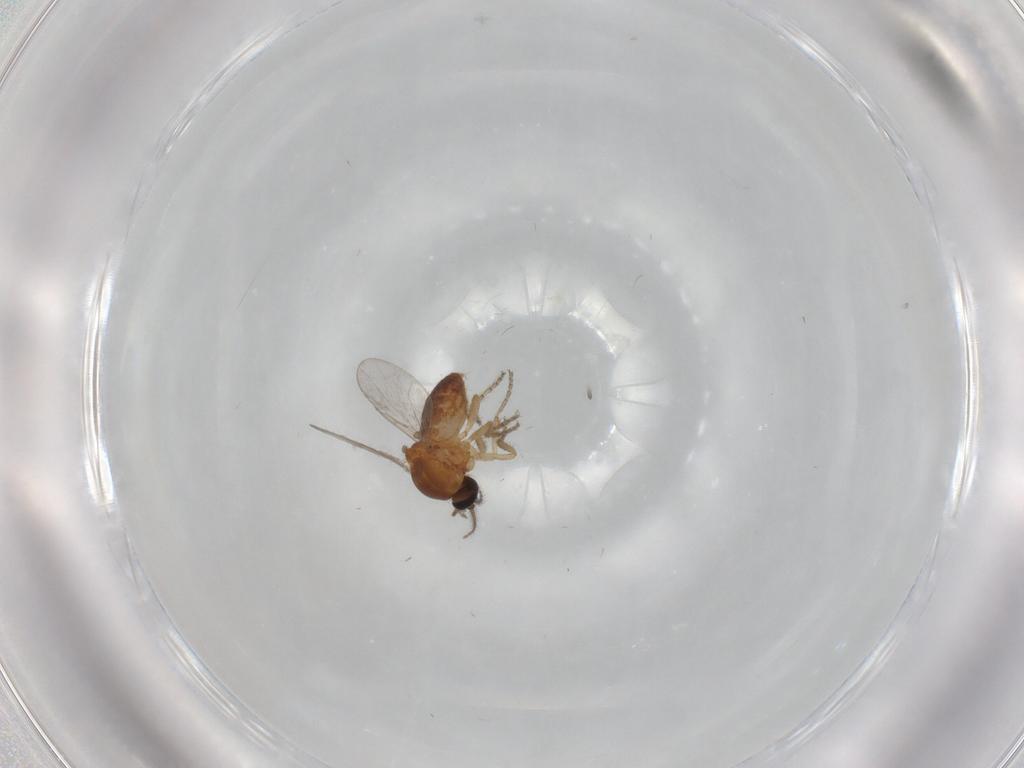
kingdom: Animalia
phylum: Arthropoda
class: Insecta
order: Diptera
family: Ceratopogonidae
